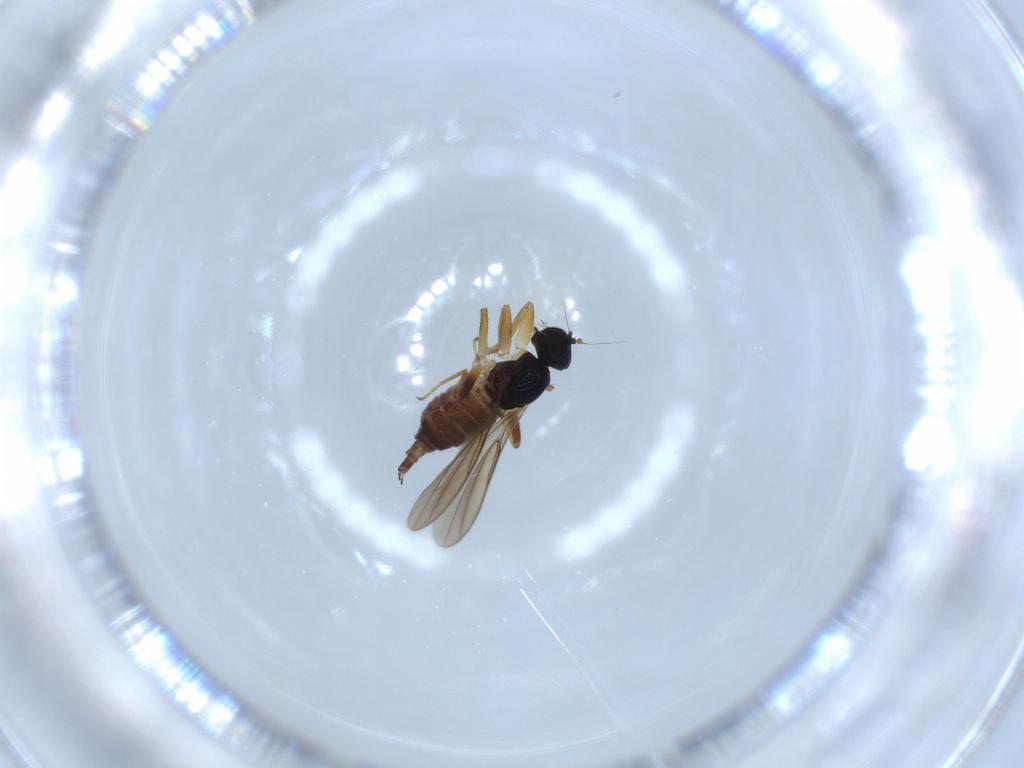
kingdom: Animalia
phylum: Arthropoda
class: Insecta
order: Diptera
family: Hybotidae
